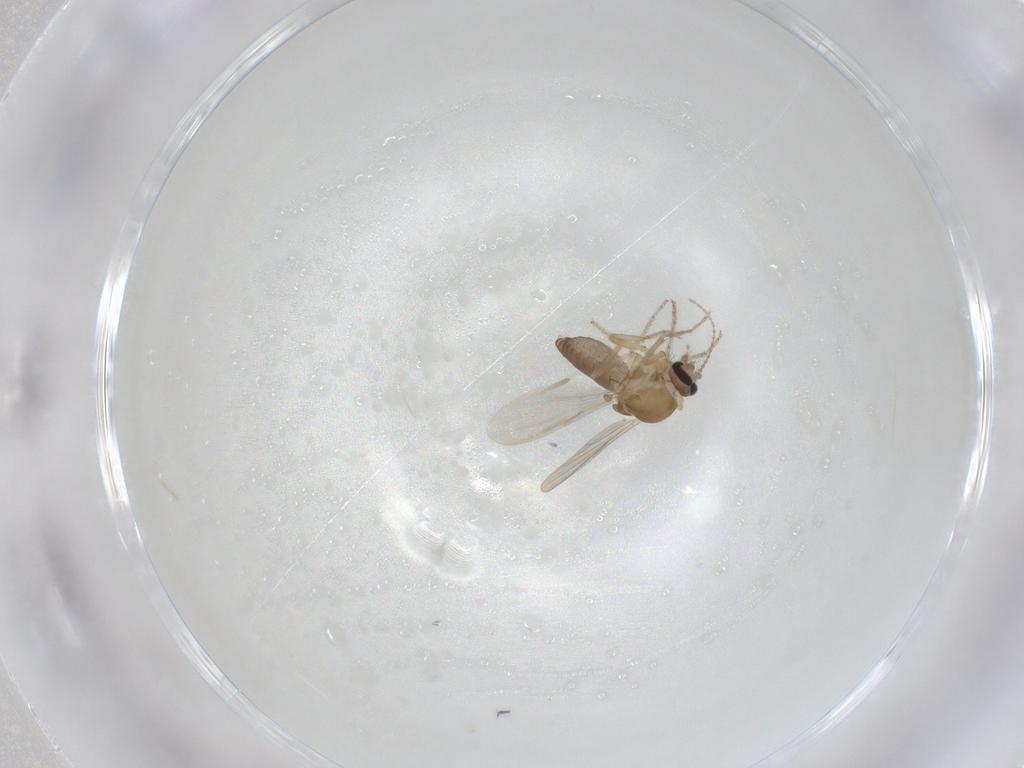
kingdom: Animalia
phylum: Arthropoda
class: Insecta
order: Diptera
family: Ceratopogonidae
